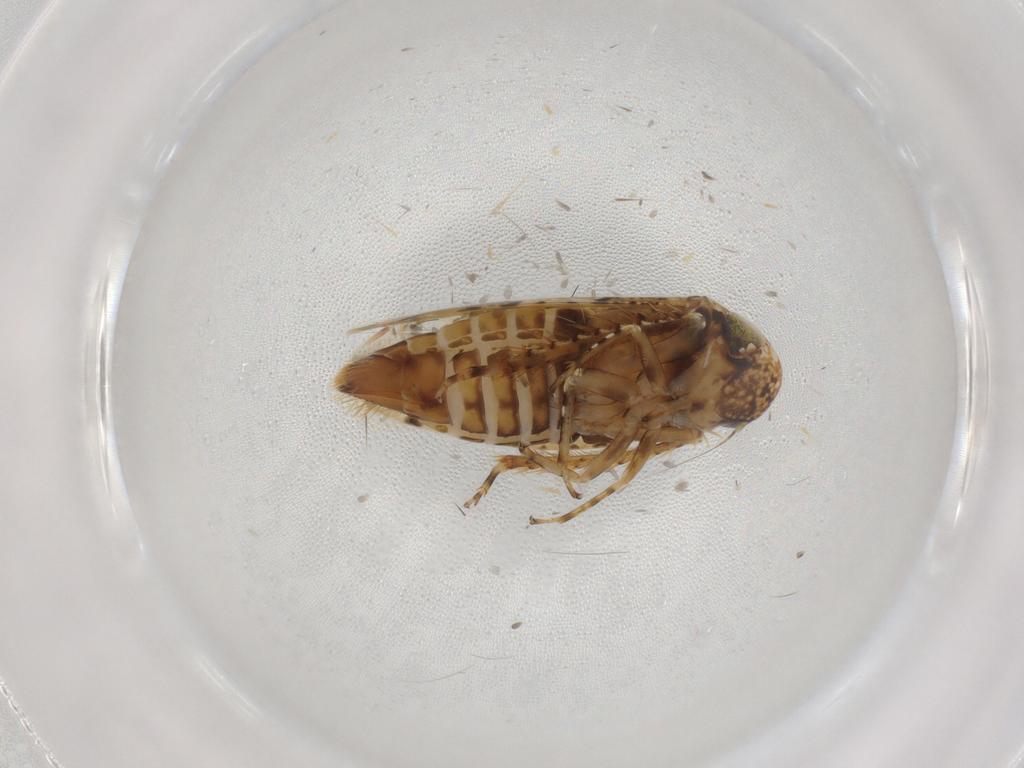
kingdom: Animalia
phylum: Arthropoda
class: Insecta
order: Hemiptera
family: Cicadellidae
